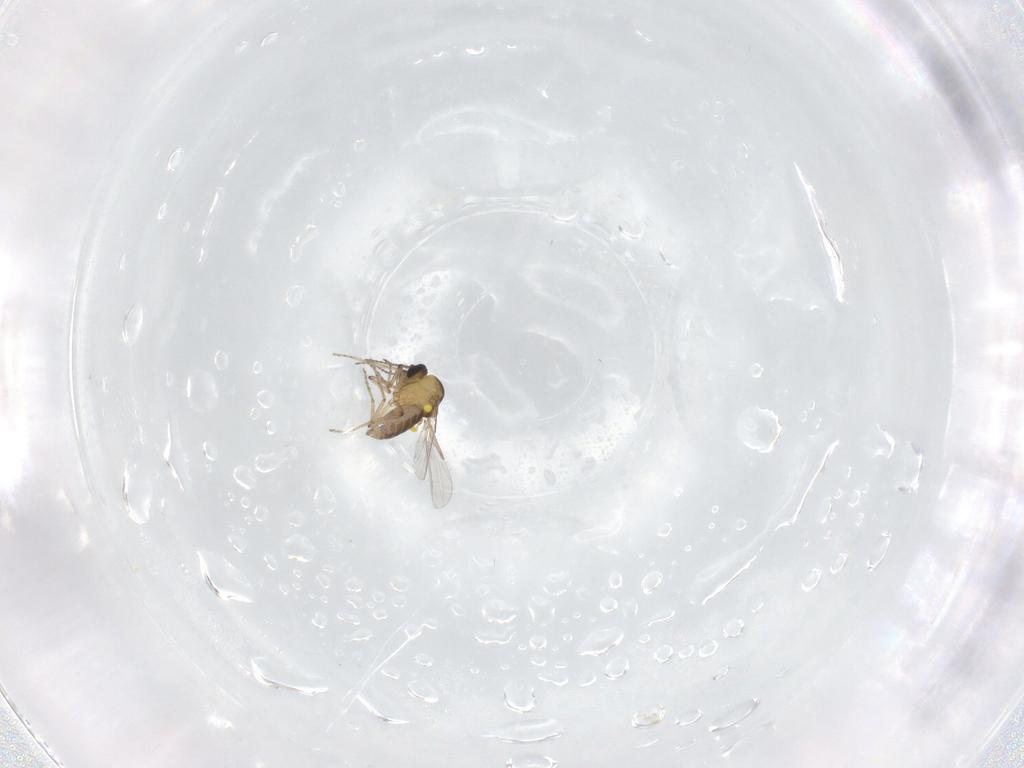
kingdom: Animalia
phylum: Arthropoda
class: Insecta
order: Diptera
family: Ceratopogonidae
